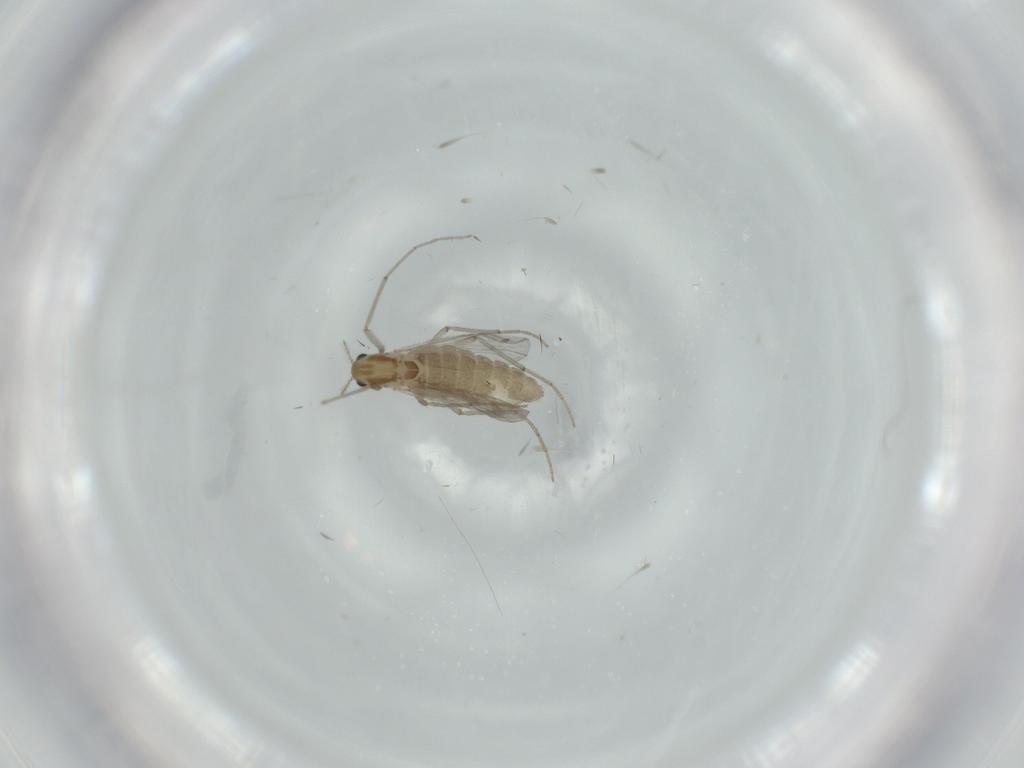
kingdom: Animalia
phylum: Arthropoda
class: Insecta
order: Diptera
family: Chironomidae
